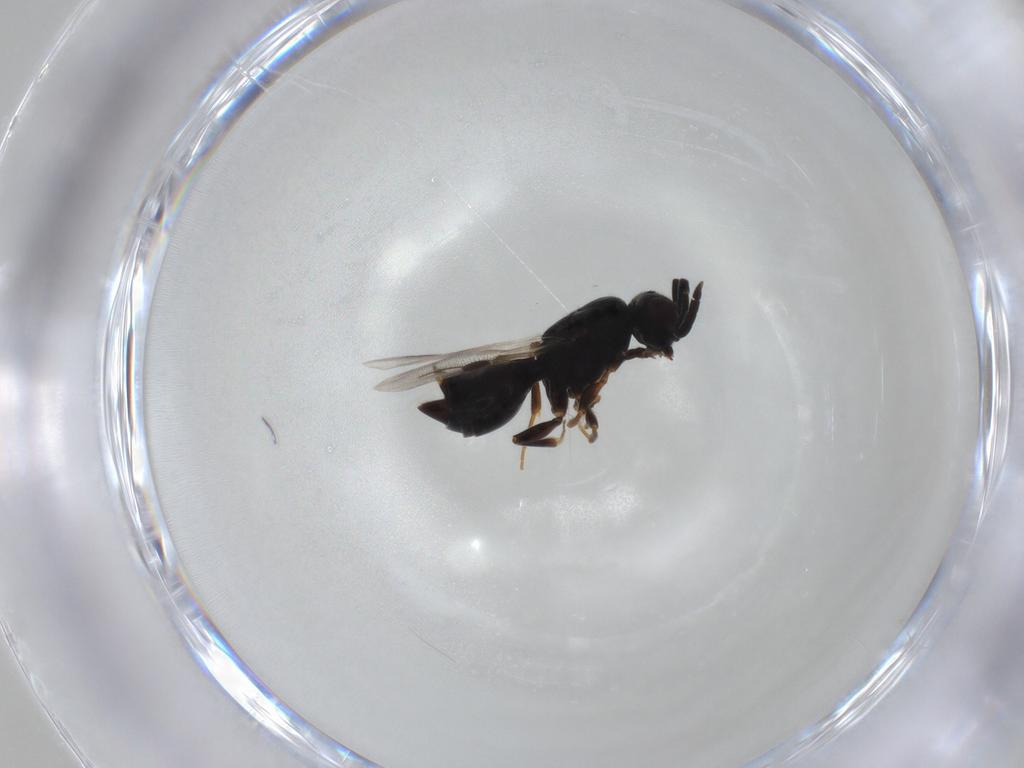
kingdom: Animalia
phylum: Arthropoda
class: Insecta
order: Hymenoptera
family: Megaspilidae
